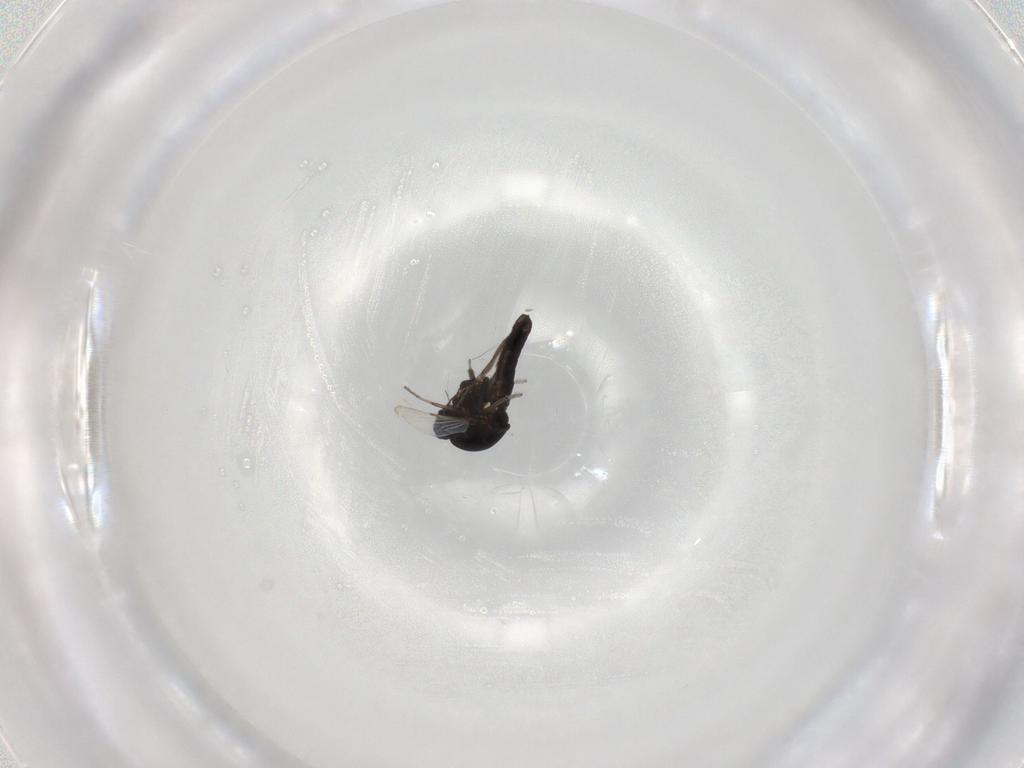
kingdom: Animalia
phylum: Arthropoda
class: Insecta
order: Diptera
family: Ceratopogonidae
